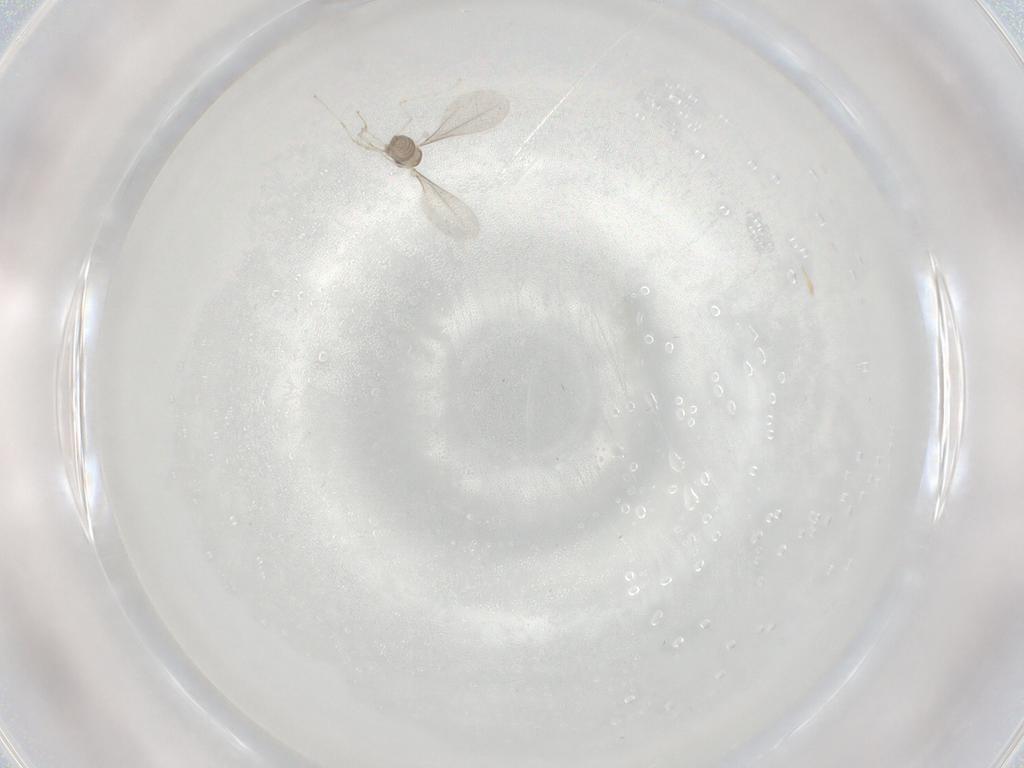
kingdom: Animalia
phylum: Arthropoda
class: Insecta
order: Diptera
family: Cecidomyiidae
